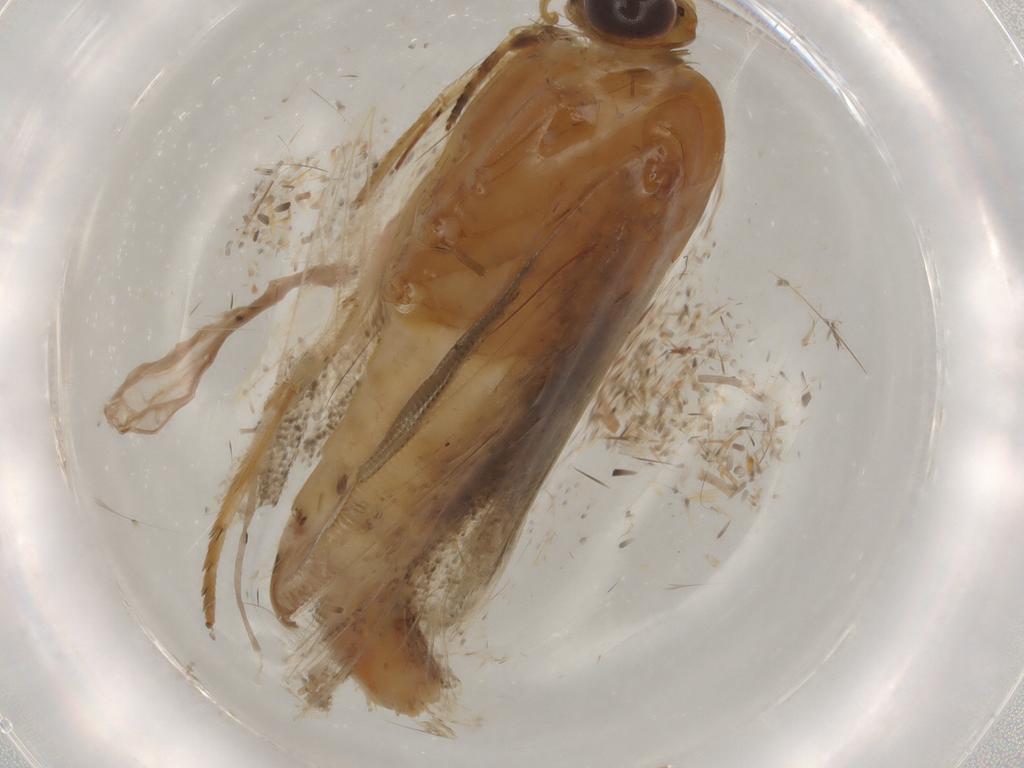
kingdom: Animalia
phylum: Arthropoda
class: Insecta
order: Lepidoptera
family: Tortricidae
